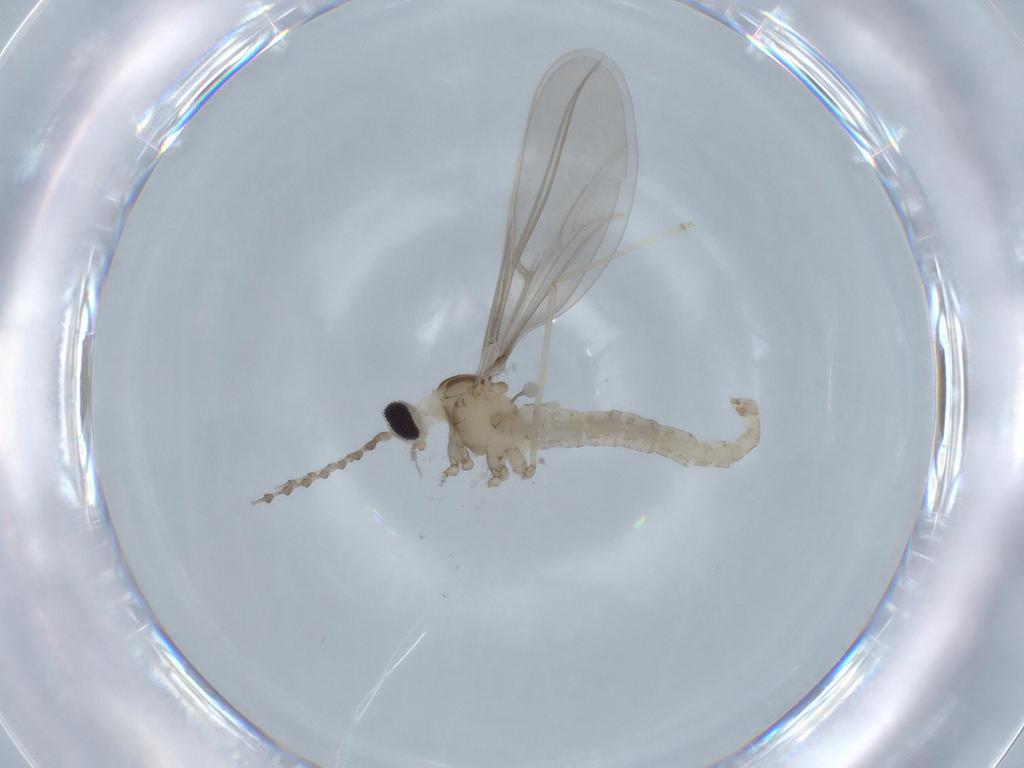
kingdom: Animalia
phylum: Arthropoda
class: Insecta
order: Diptera
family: Cecidomyiidae
